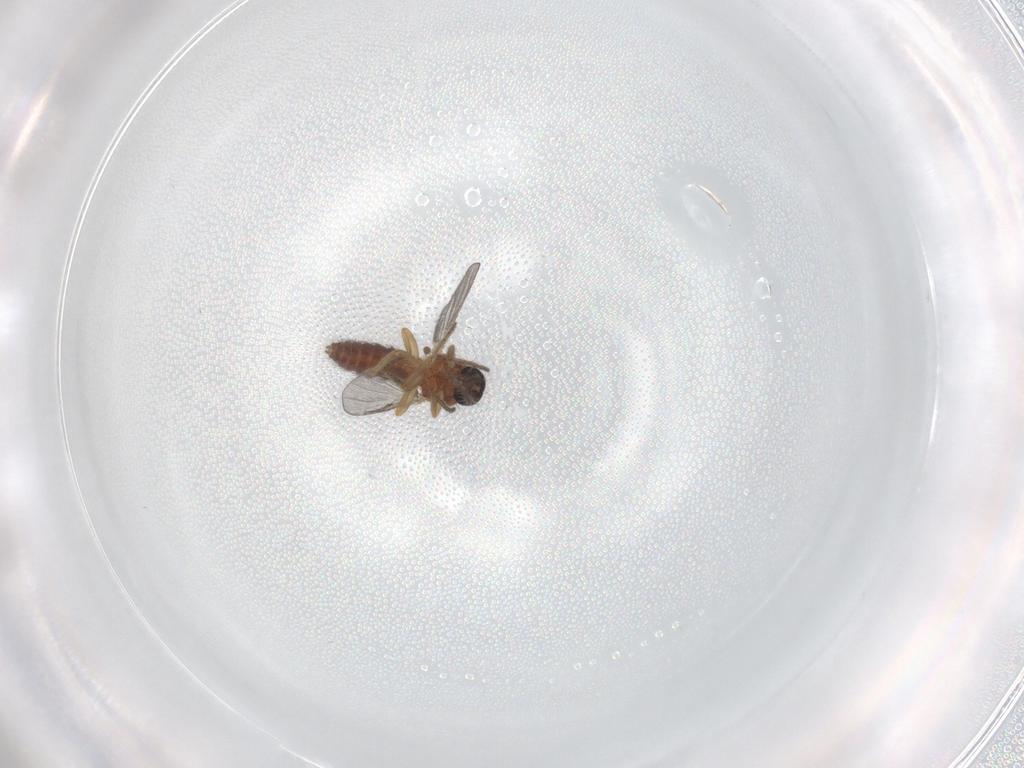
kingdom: Animalia
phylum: Arthropoda
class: Insecta
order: Diptera
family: Ceratopogonidae
